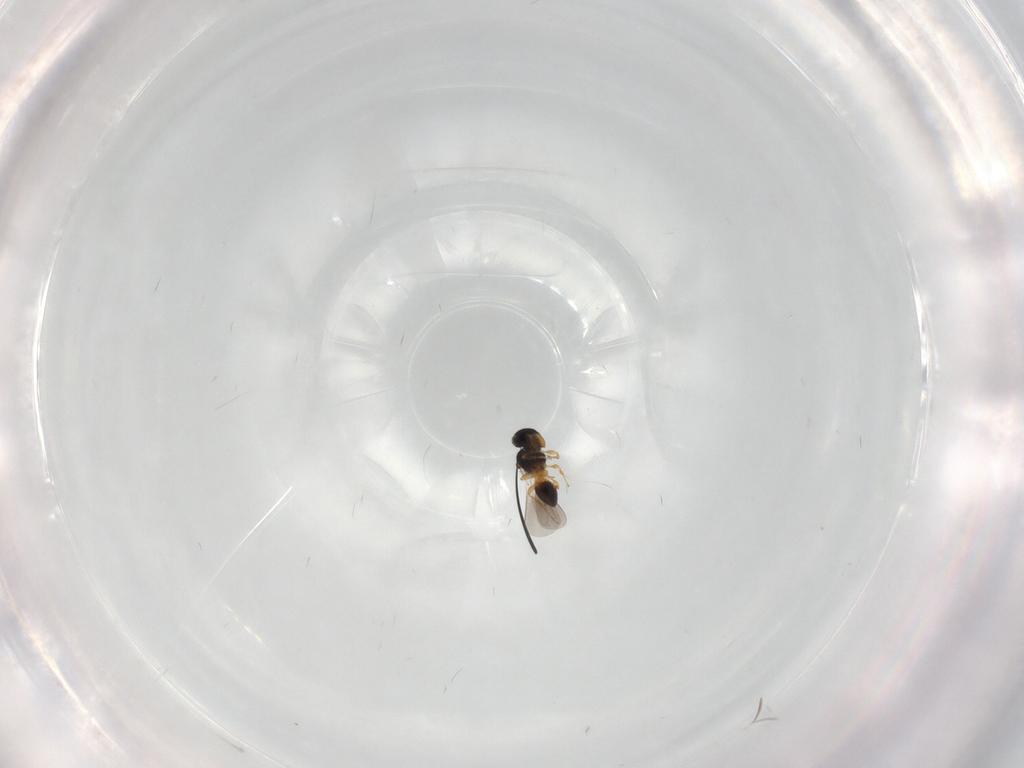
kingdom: Animalia
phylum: Arthropoda
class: Insecta
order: Hymenoptera
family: Platygastridae
